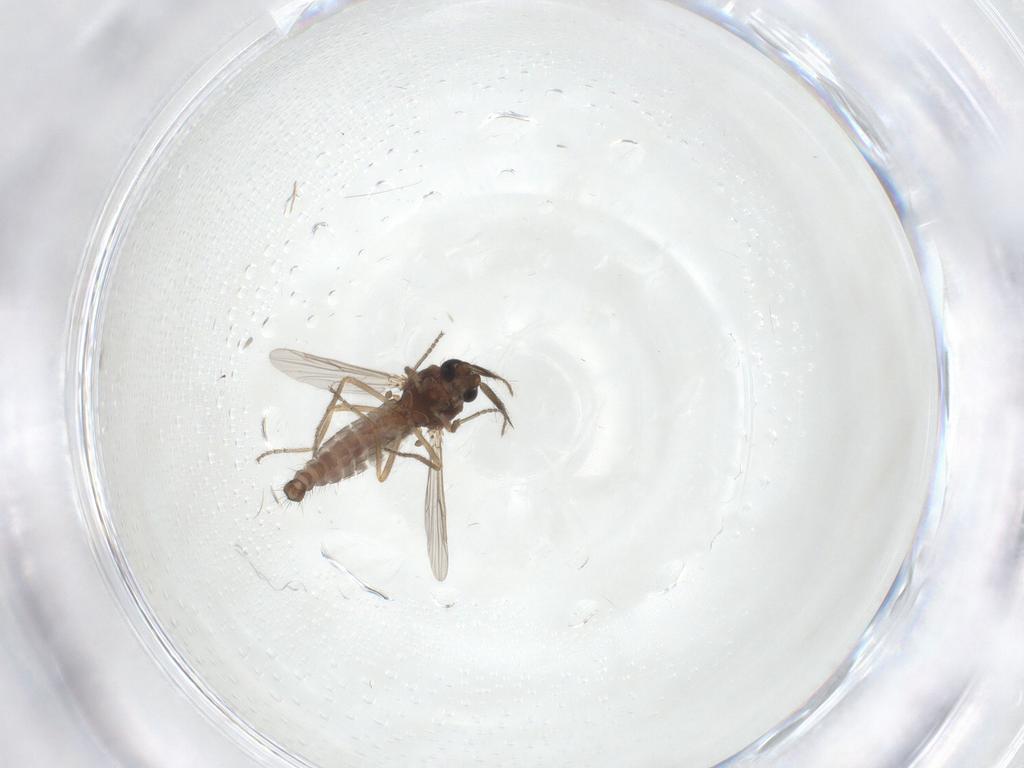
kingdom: Animalia
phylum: Arthropoda
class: Insecta
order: Diptera
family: Ceratopogonidae
